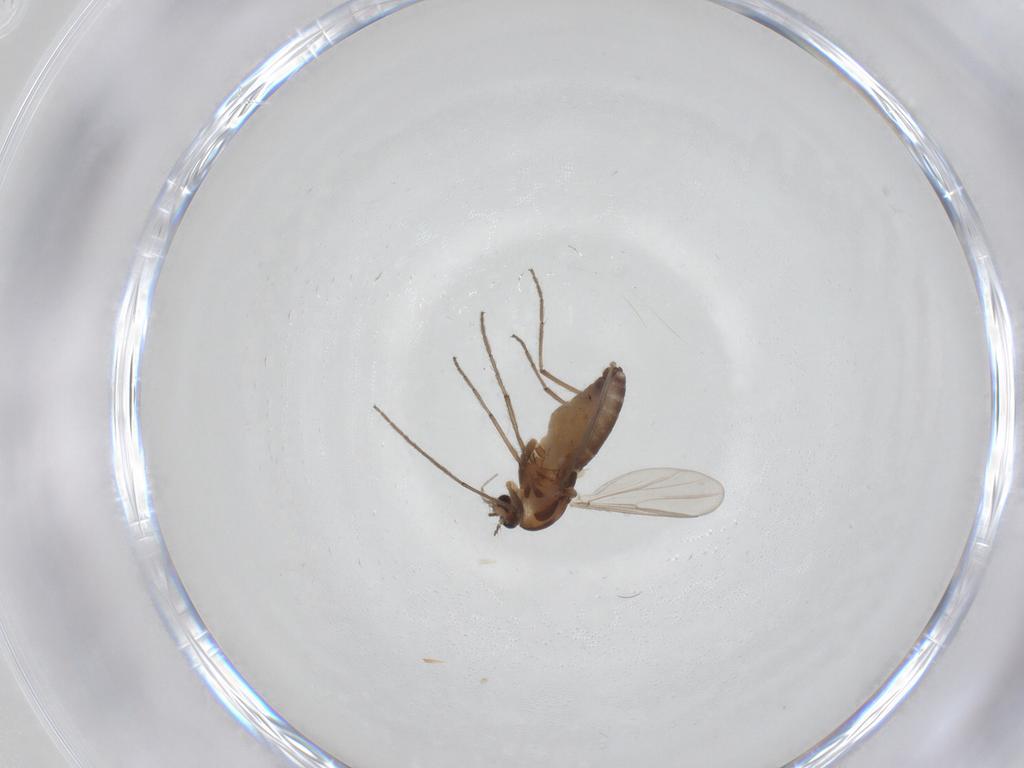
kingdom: Animalia
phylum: Arthropoda
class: Insecta
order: Diptera
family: Chironomidae
